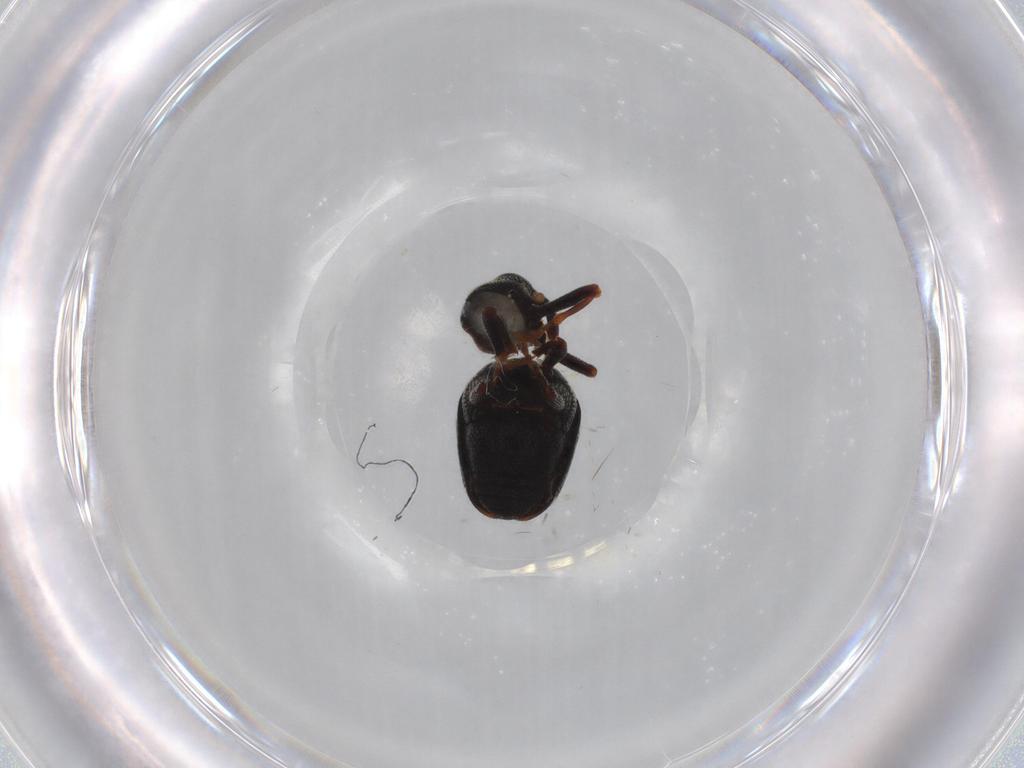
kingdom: Animalia
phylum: Arthropoda
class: Insecta
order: Coleoptera
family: Curculionidae
